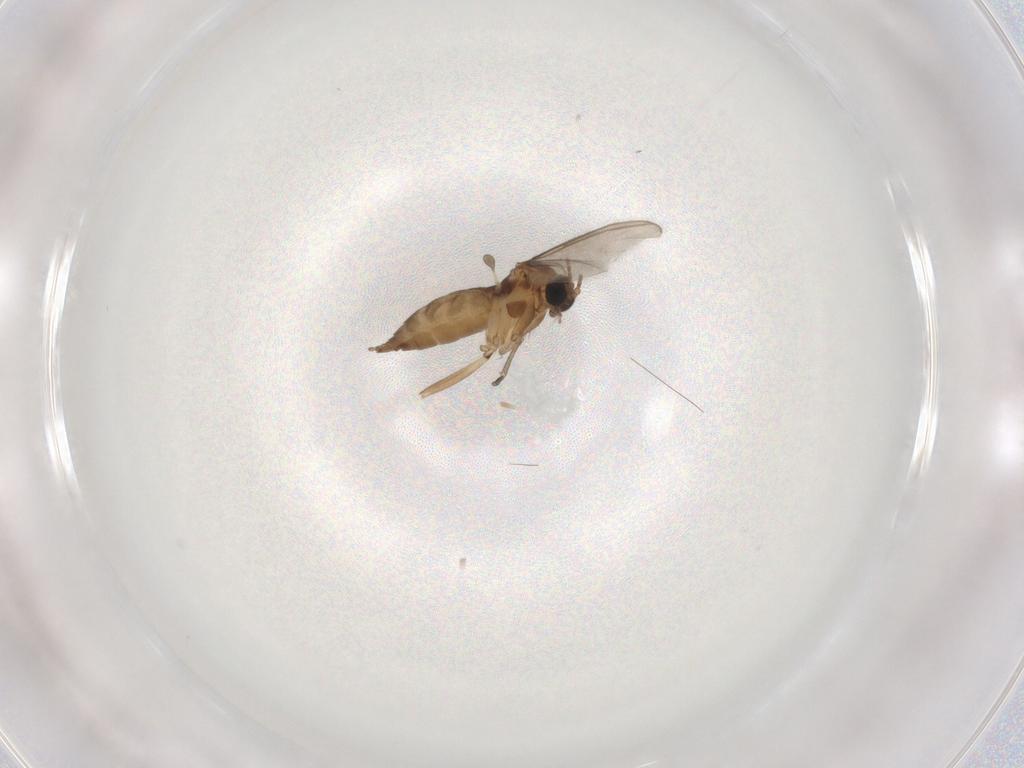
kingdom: Animalia
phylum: Arthropoda
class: Insecta
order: Diptera
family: Sciaridae
